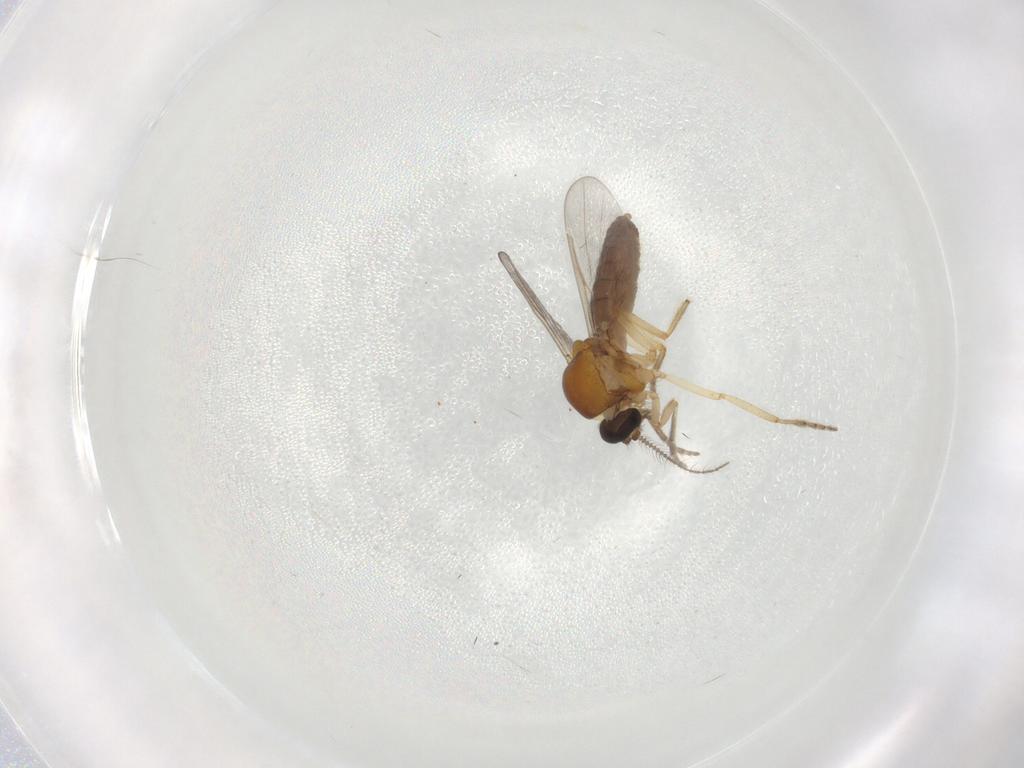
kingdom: Animalia
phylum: Arthropoda
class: Insecta
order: Diptera
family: Ceratopogonidae
